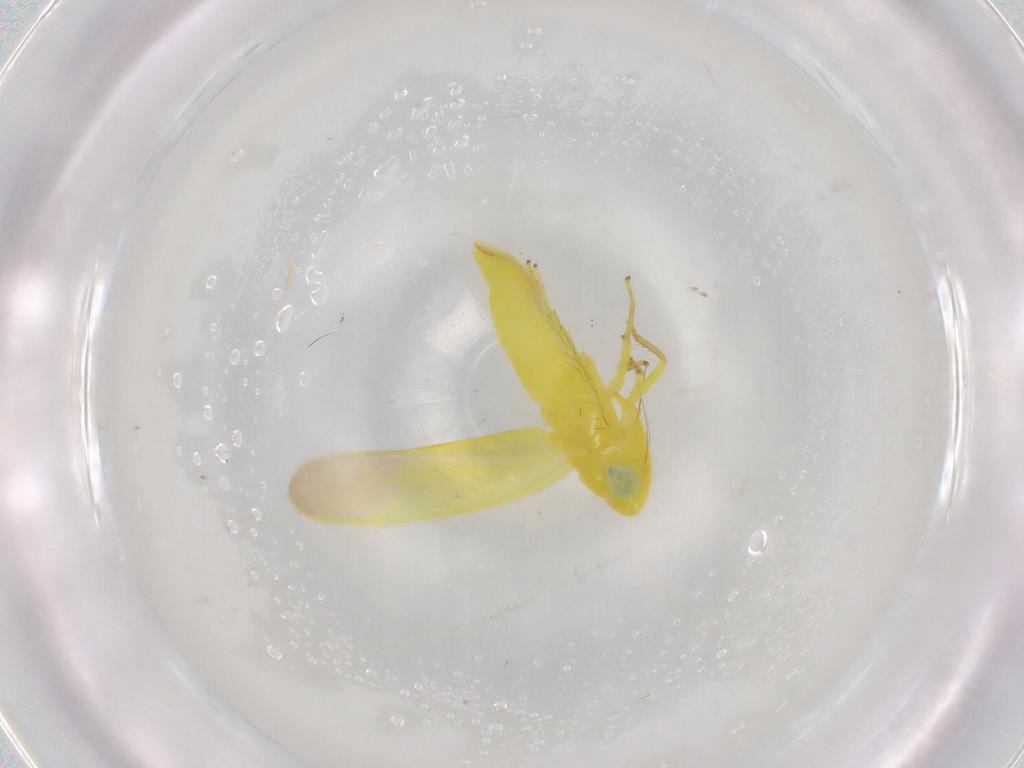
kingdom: Animalia
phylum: Arthropoda
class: Insecta
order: Hemiptera
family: Cicadellidae
